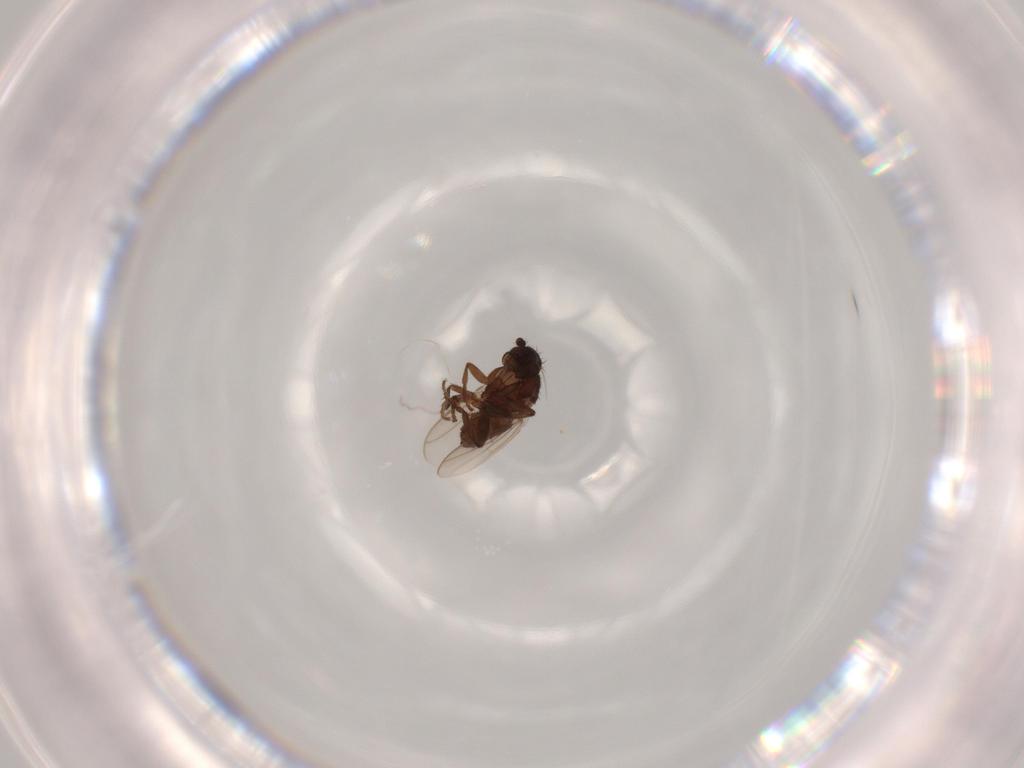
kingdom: Animalia
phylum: Arthropoda
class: Insecta
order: Diptera
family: Sphaeroceridae
